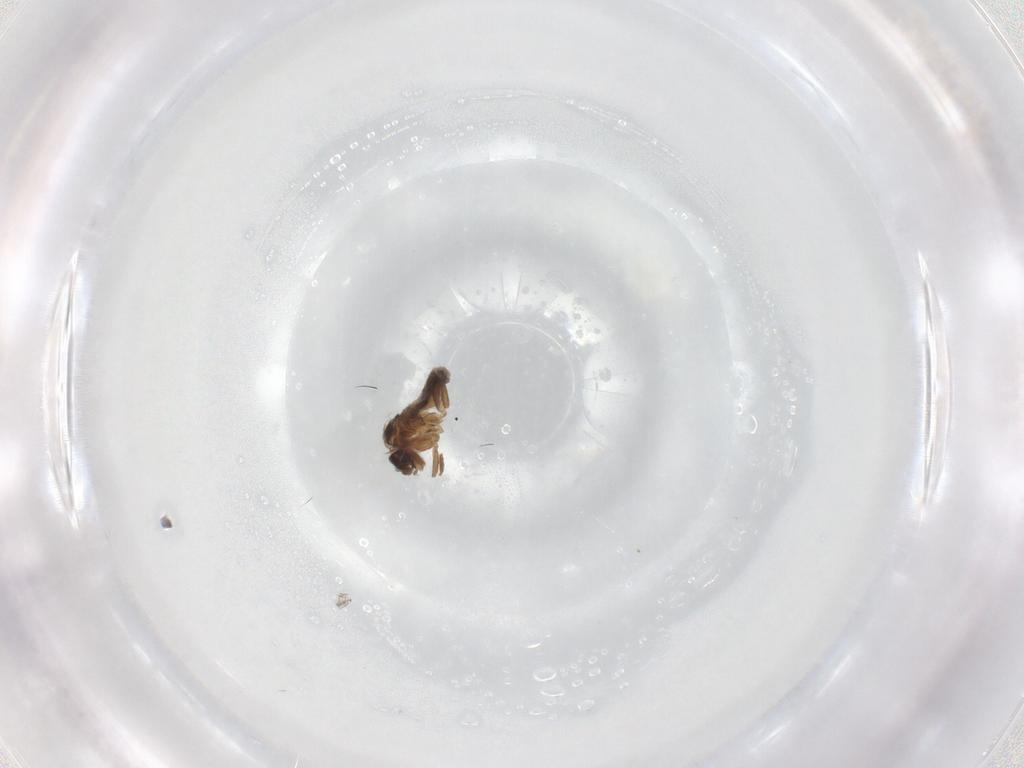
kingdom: Animalia
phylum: Arthropoda
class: Insecta
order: Diptera
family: Cecidomyiidae
